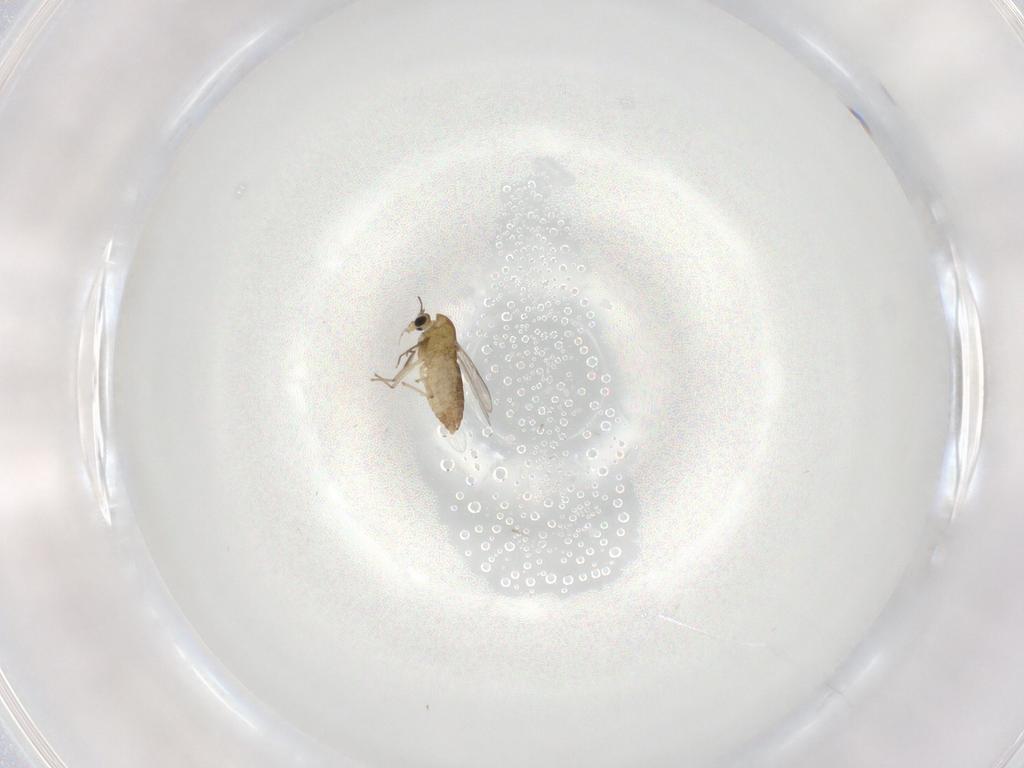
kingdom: Animalia
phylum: Arthropoda
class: Insecta
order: Diptera
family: Chironomidae
